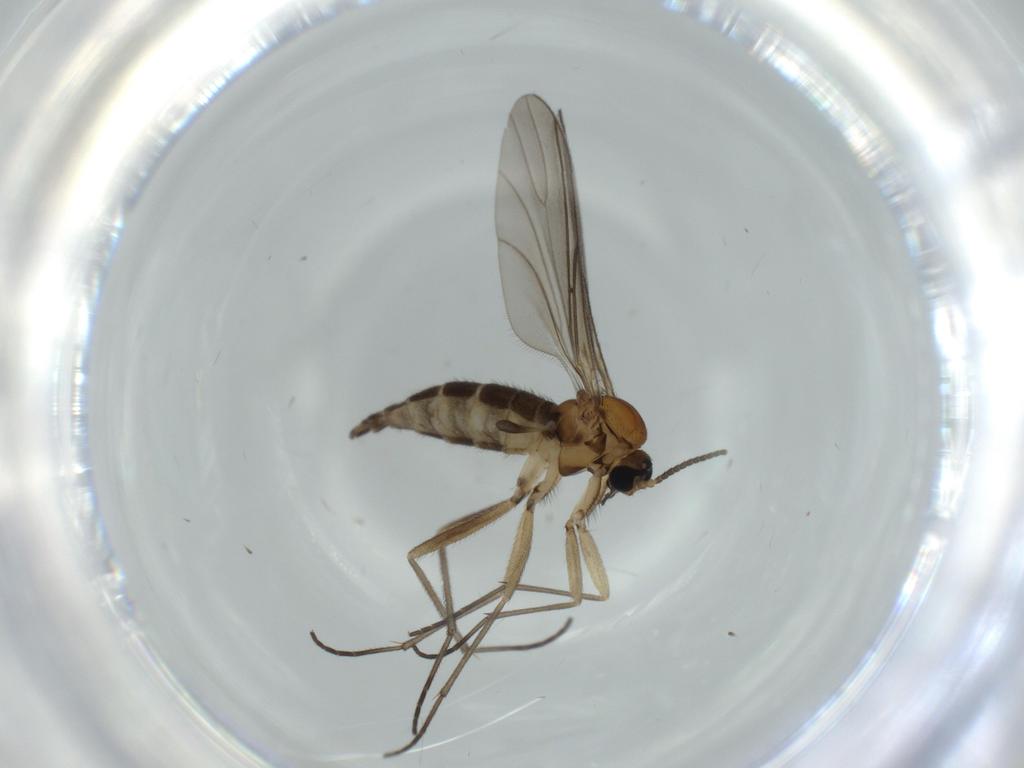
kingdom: Animalia
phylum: Arthropoda
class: Insecta
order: Diptera
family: Sciaridae
